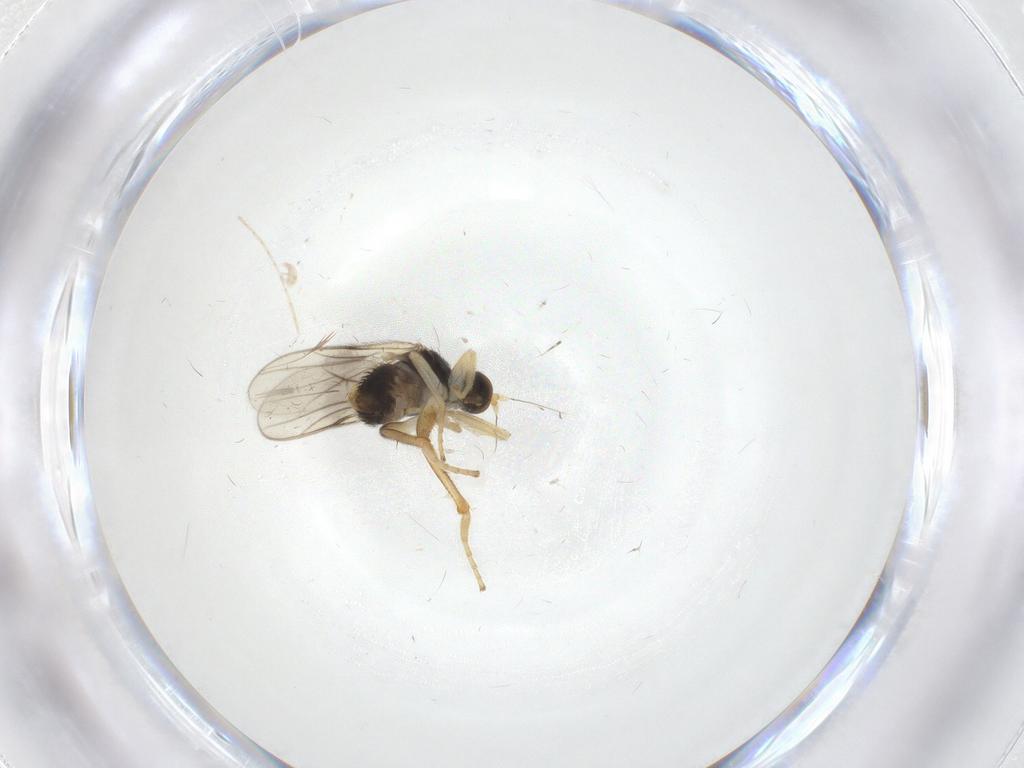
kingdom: Animalia
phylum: Arthropoda
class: Insecta
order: Diptera
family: Hybotidae
